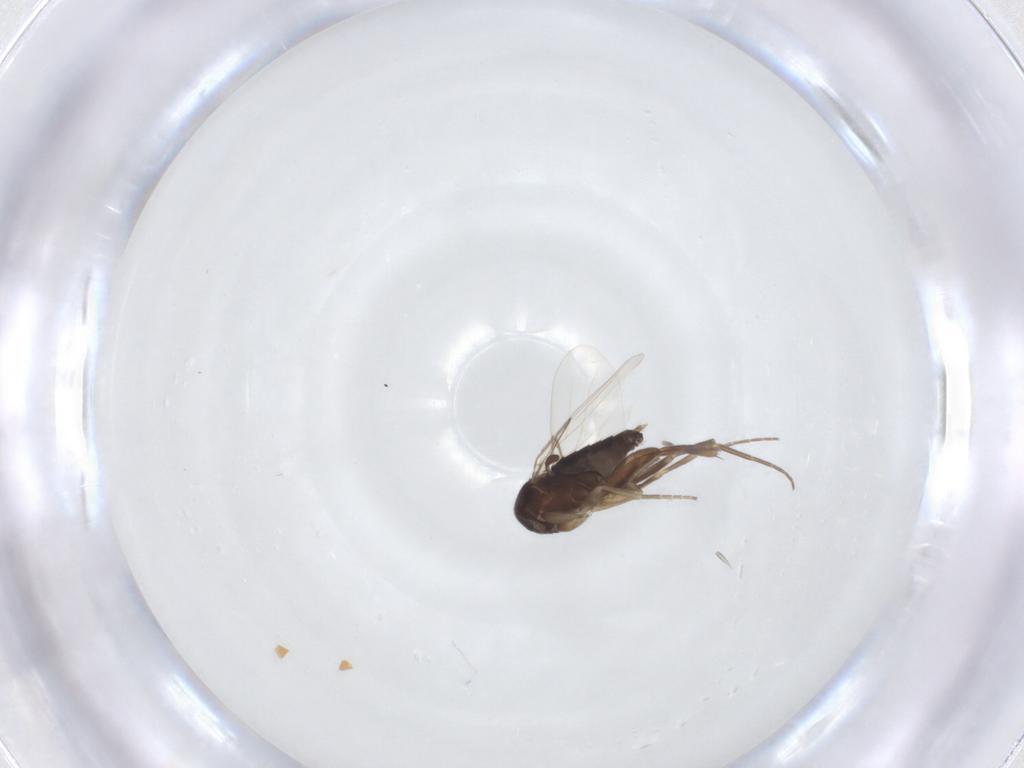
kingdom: Animalia
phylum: Arthropoda
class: Insecta
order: Diptera
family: Phoridae
